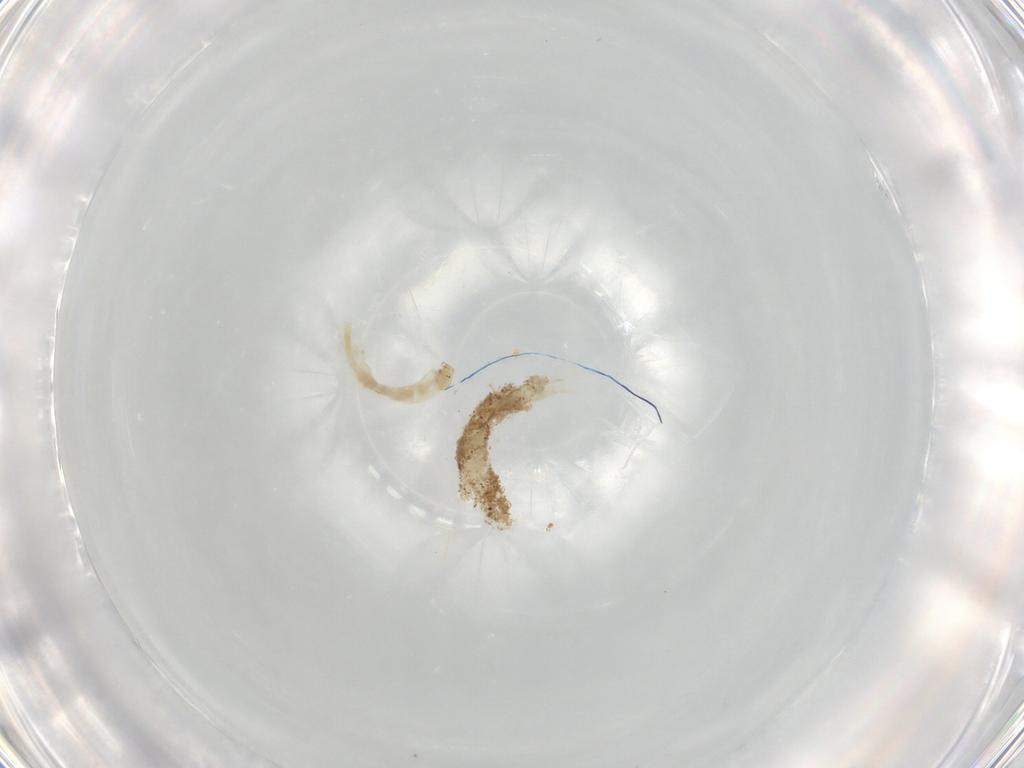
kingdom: Animalia
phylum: Arthropoda
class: Insecta
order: Diptera
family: Chironomidae
